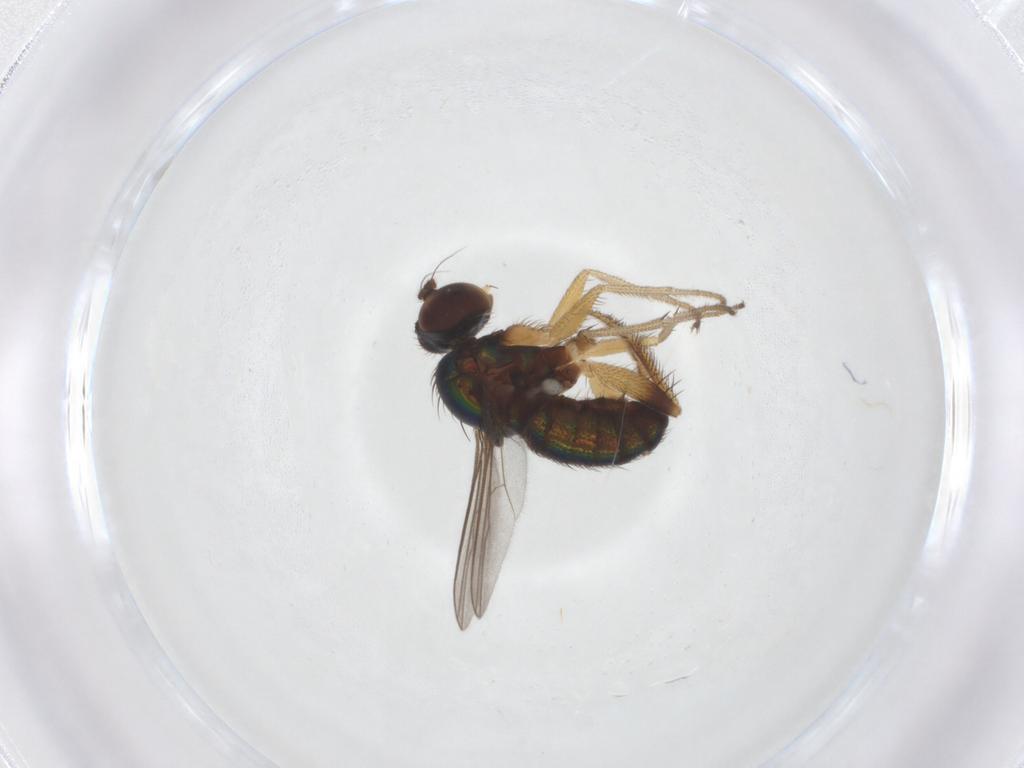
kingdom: Animalia
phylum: Arthropoda
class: Insecta
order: Diptera
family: Dolichopodidae
